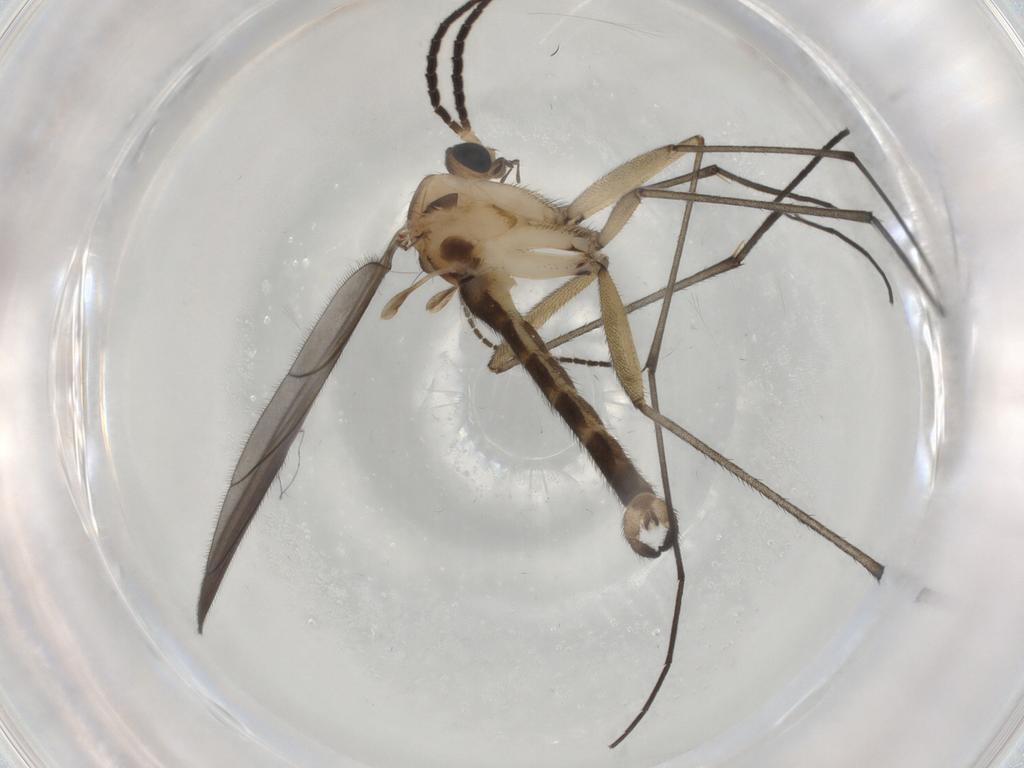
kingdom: Animalia
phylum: Arthropoda
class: Insecta
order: Diptera
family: Sciaridae
